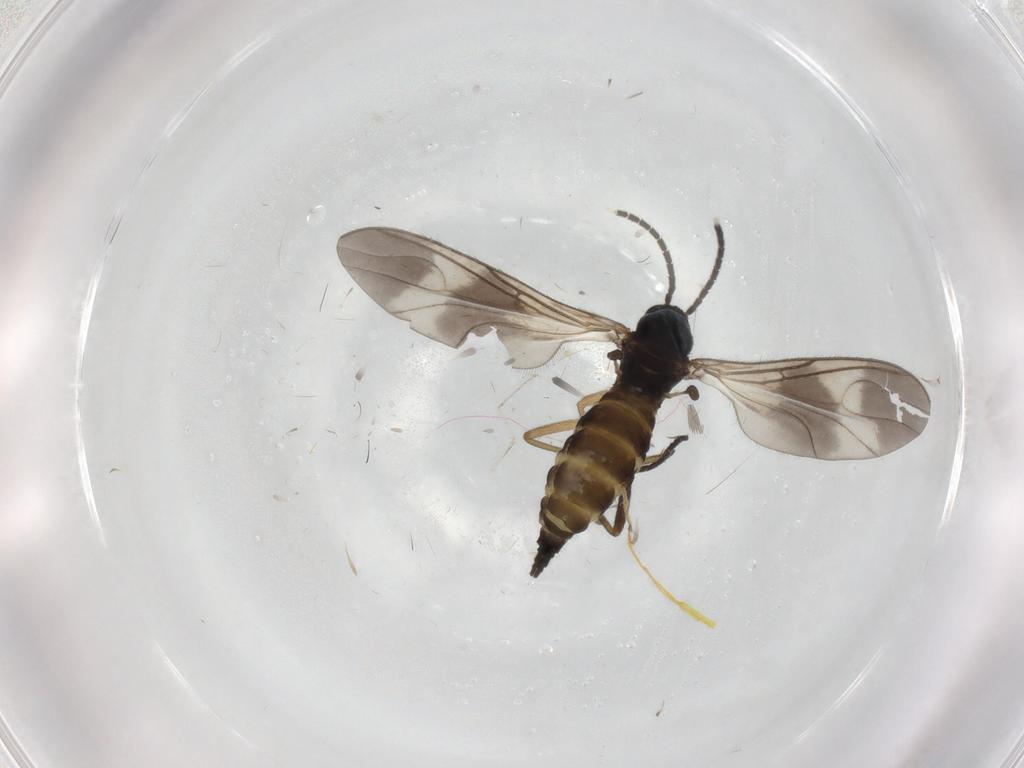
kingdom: Animalia
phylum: Arthropoda
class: Insecta
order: Diptera
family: Sciaridae
